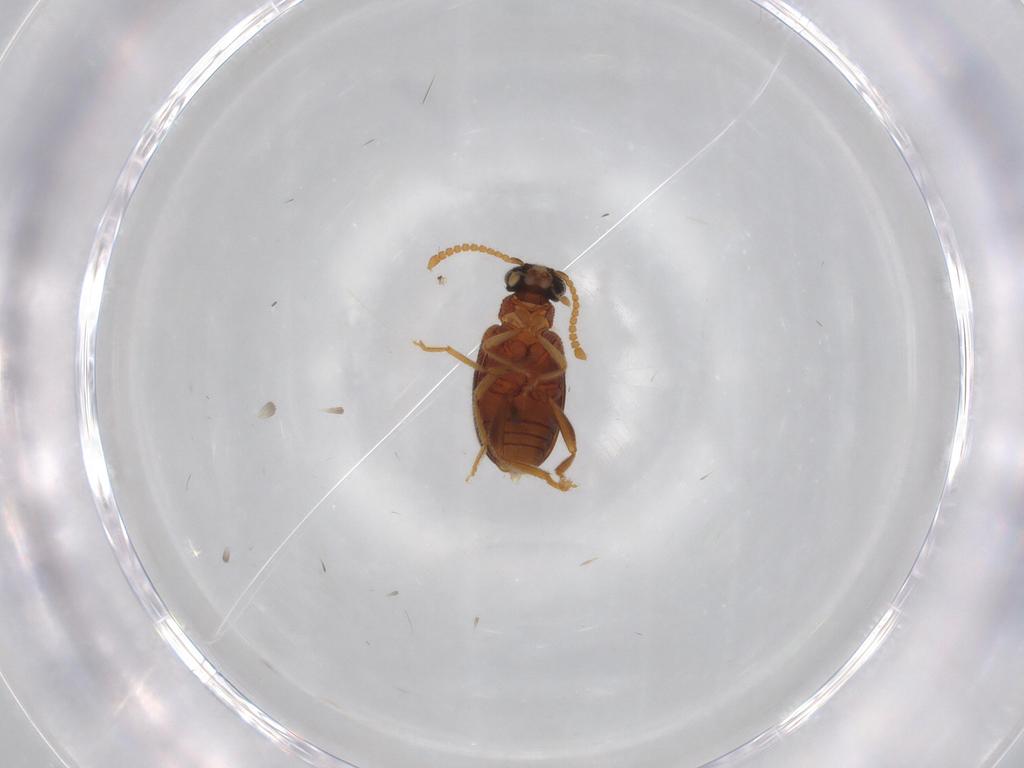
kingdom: Animalia
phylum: Arthropoda
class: Insecta
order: Coleoptera
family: Aderidae
